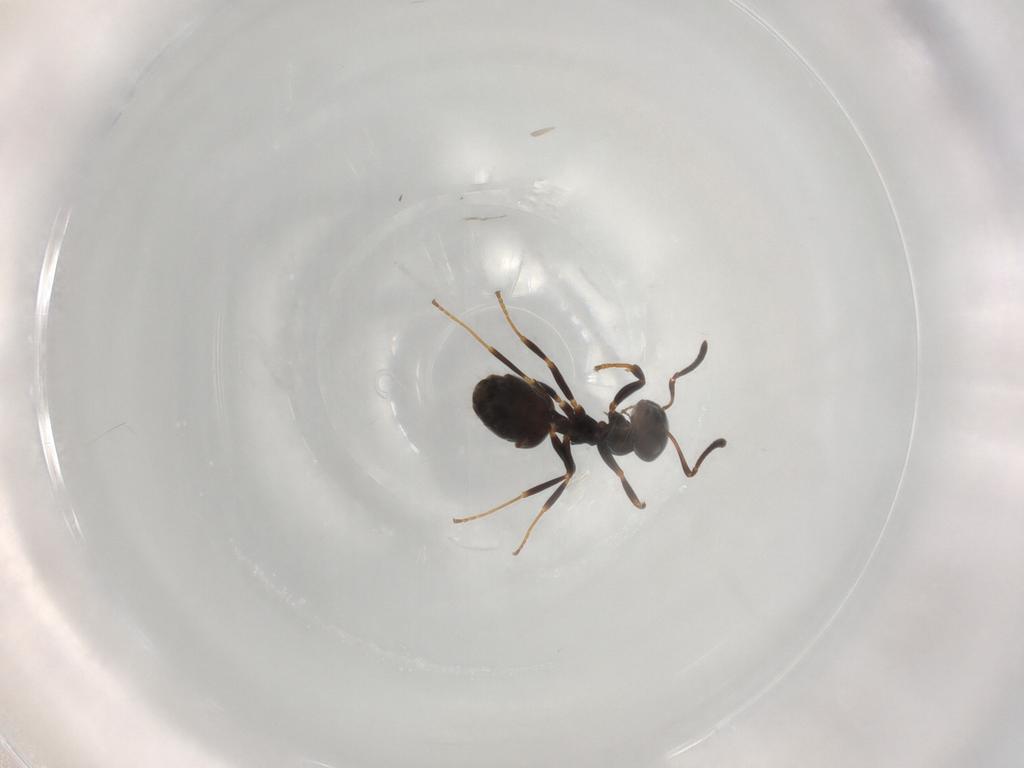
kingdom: Animalia
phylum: Arthropoda
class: Insecta
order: Hymenoptera
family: Formicidae
